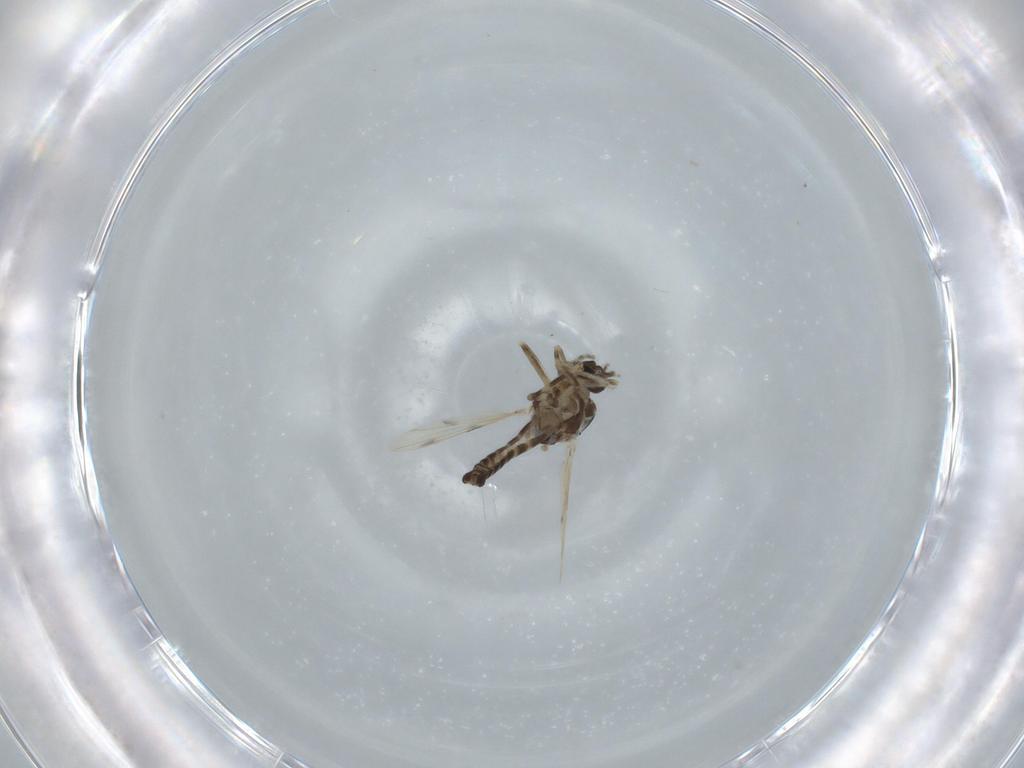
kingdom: Animalia
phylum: Arthropoda
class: Insecta
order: Diptera
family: Ceratopogonidae
